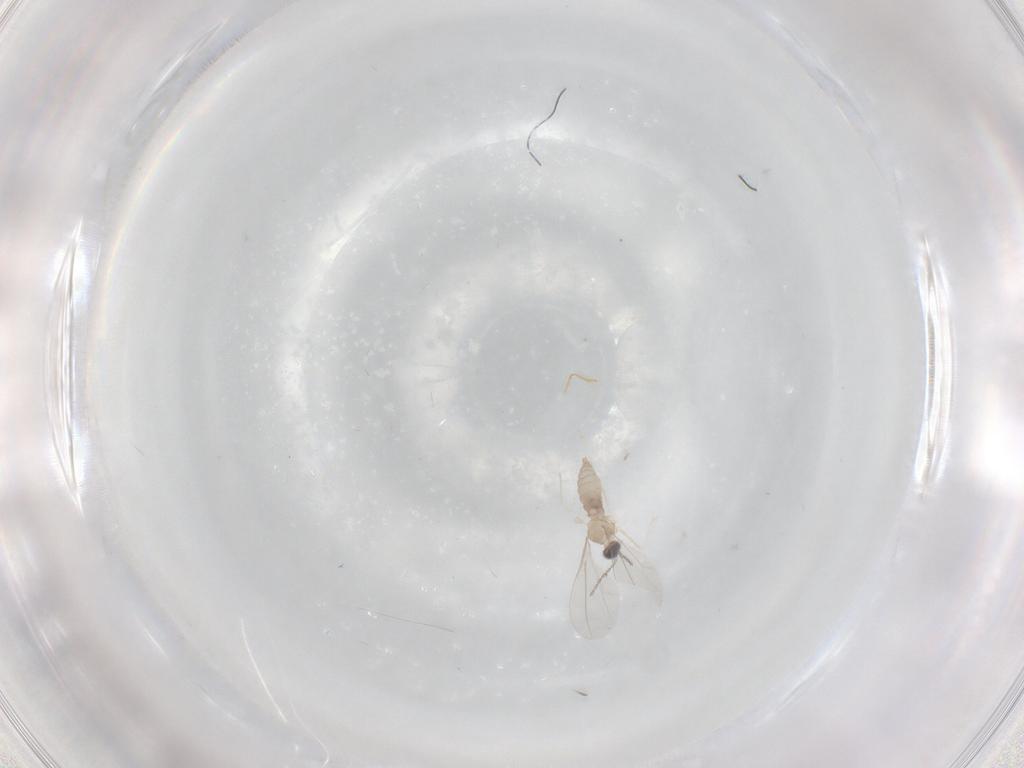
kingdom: Animalia
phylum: Arthropoda
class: Insecta
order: Diptera
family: Cecidomyiidae
